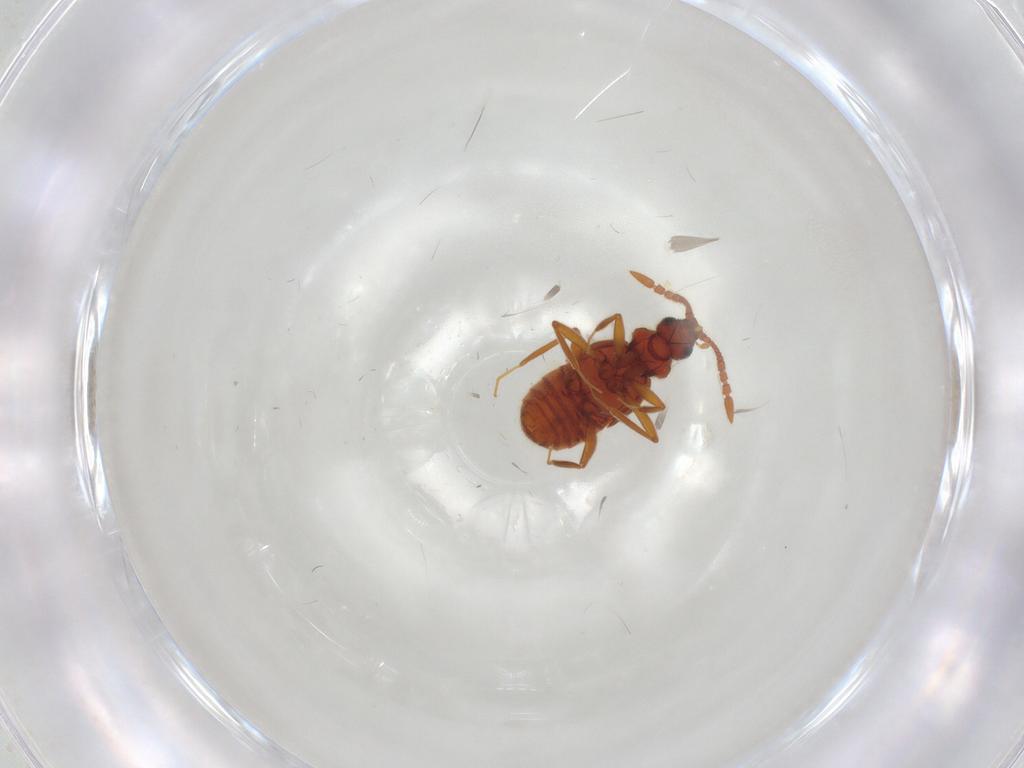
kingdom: Animalia
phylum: Arthropoda
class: Insecta
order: Coleoptera
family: Staphylinidae
